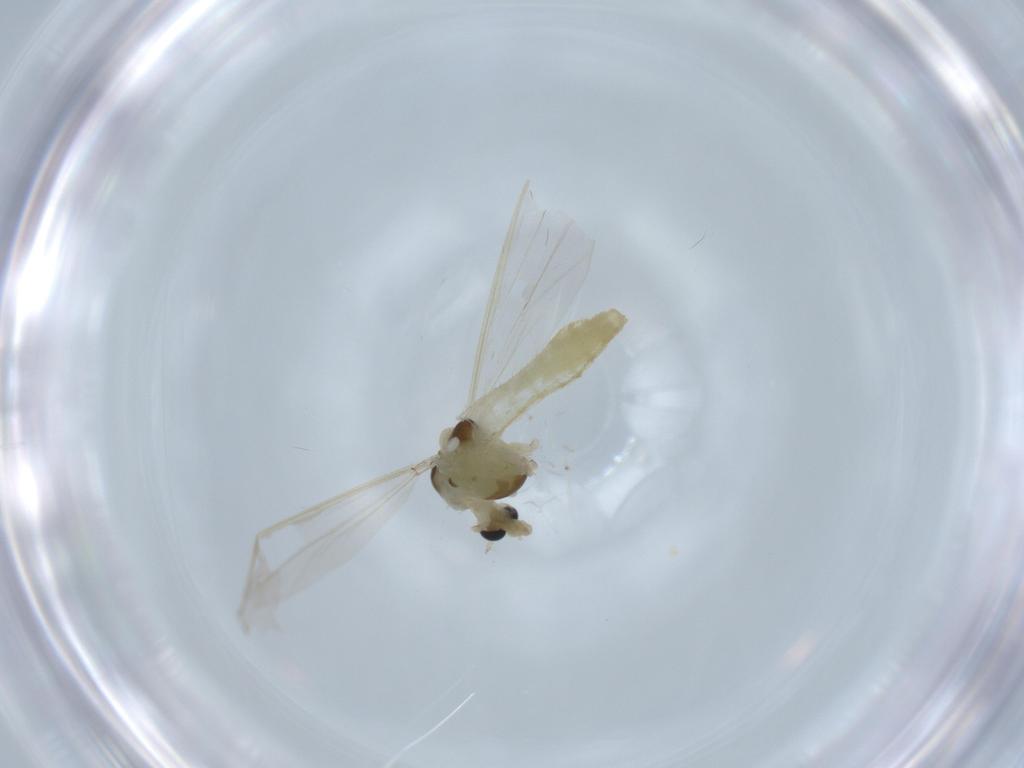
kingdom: Animalia
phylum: Arthropoda
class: Insecta
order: Diptera
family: Chironomidae
